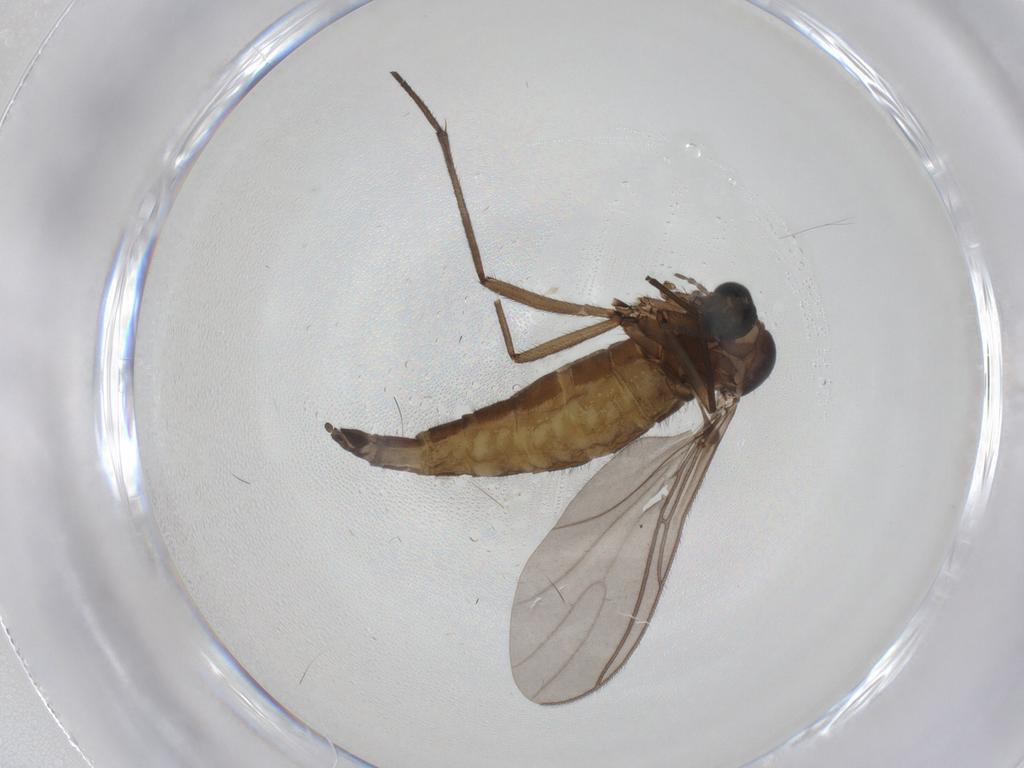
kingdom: Animalia
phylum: Arthropoda
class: Insecta
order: Diptera
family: Sciaridae
